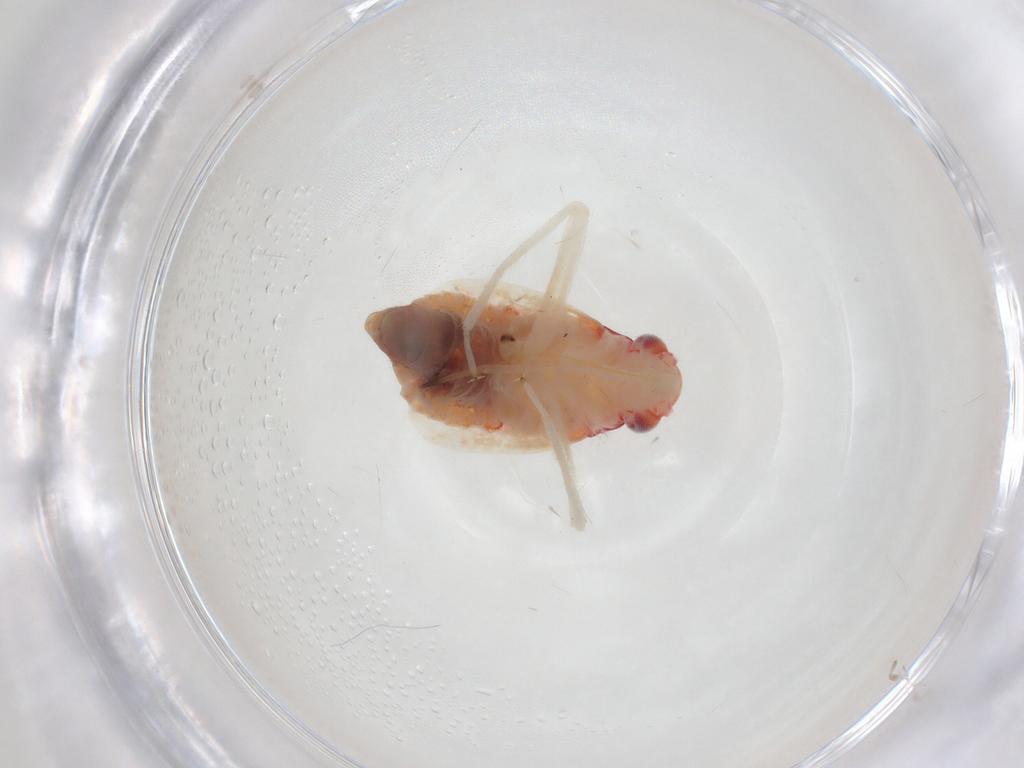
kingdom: Animalia
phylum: Arthropoda
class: Insecta
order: Hemiptera
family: Miridae
